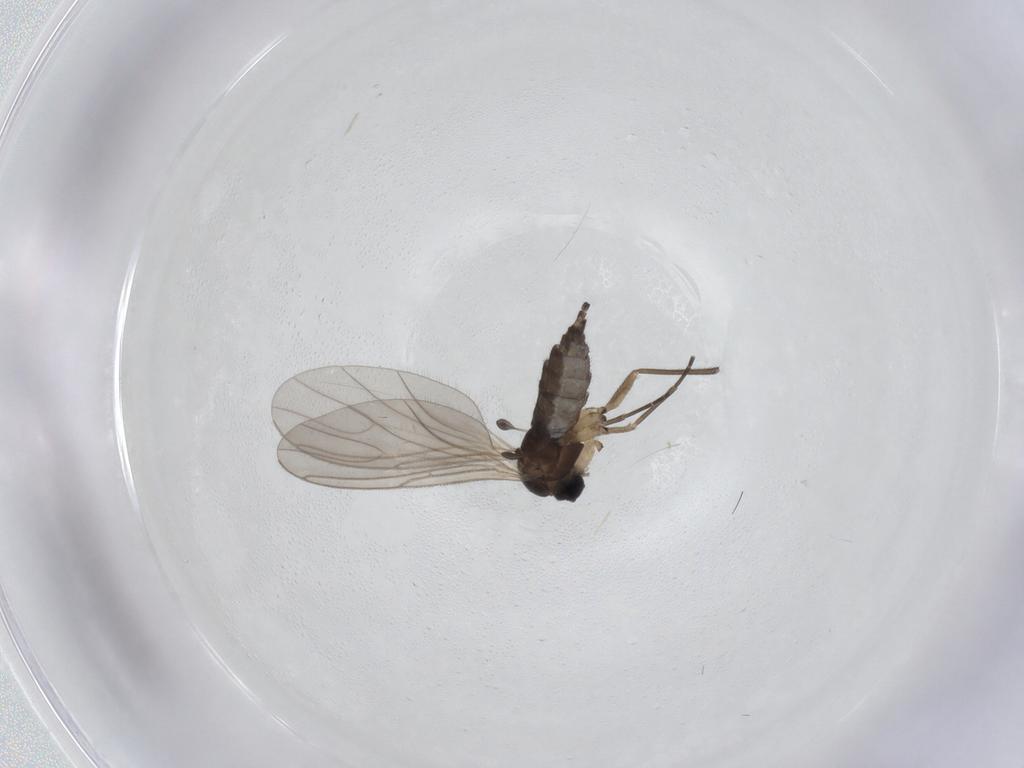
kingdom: Animalia
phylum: Arthropoda
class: Insecta
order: Diptera
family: Sciaridae
